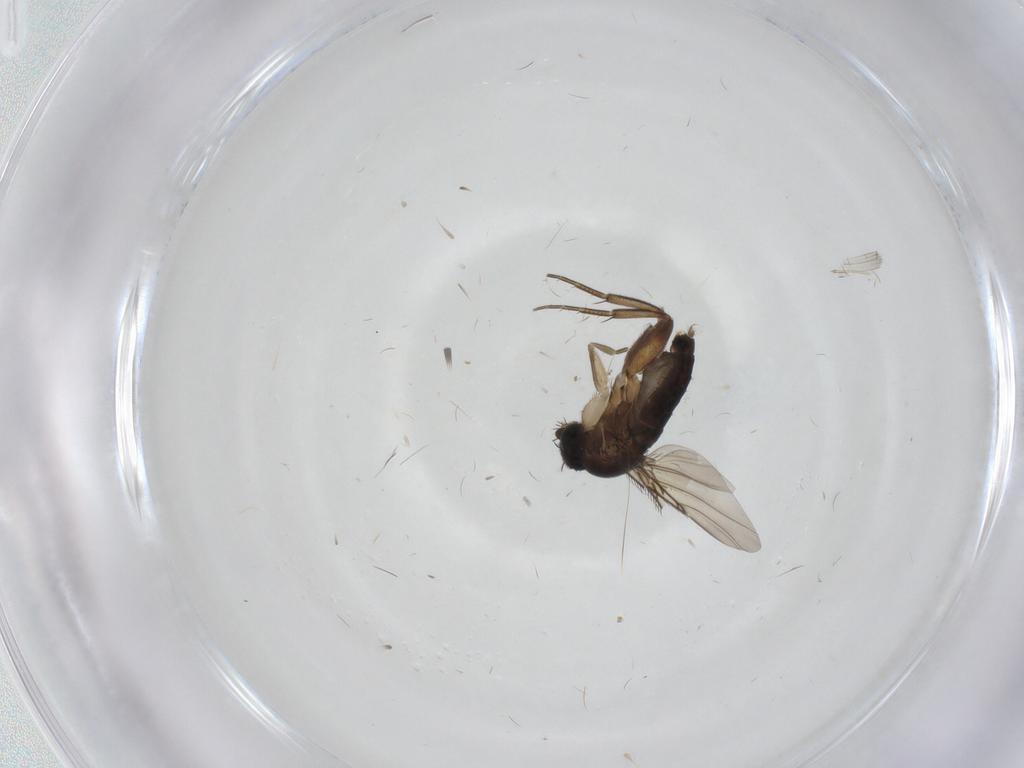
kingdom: Animalia
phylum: Arthropoda
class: Insecta
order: Diptera
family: Phoridae
